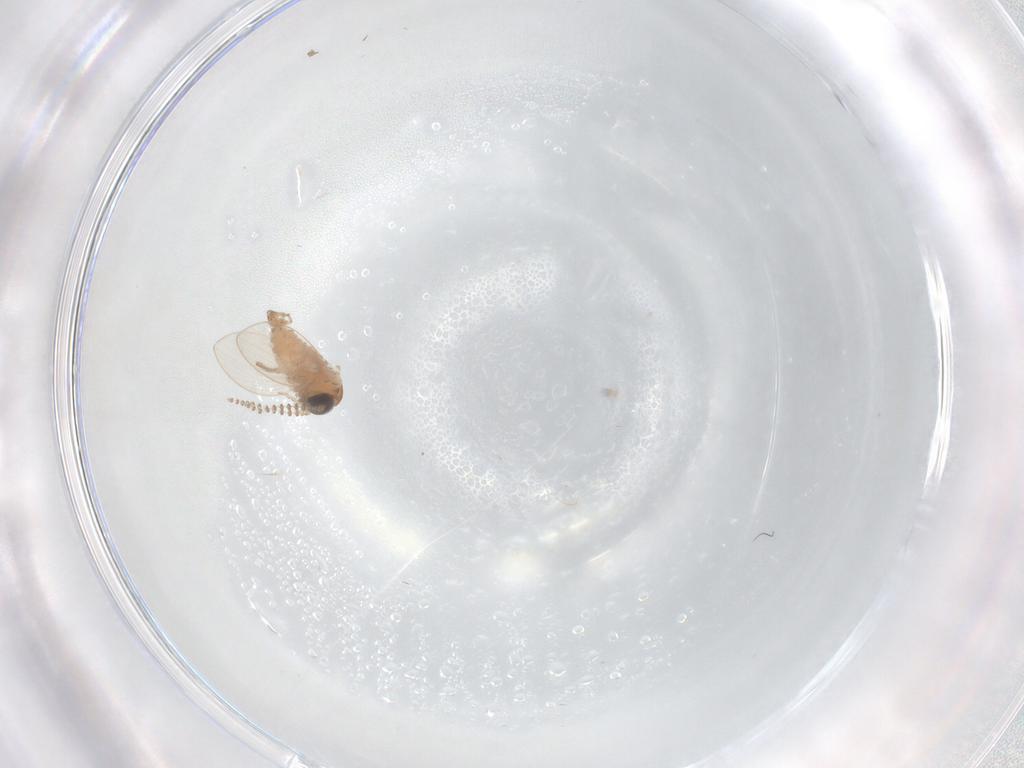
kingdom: Animalia
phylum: Arthropoda
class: Insecta
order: Diptera
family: Psychodidae
